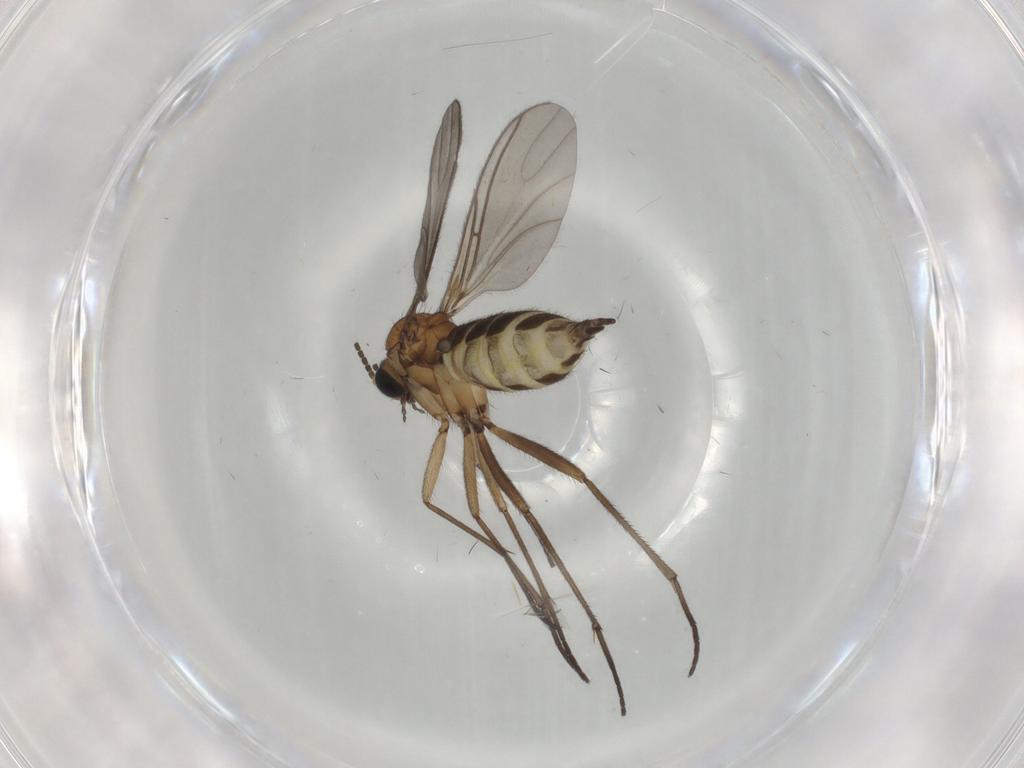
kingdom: Animalia
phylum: Arthropoda
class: Insecta
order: Diptera
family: Sciaridae
